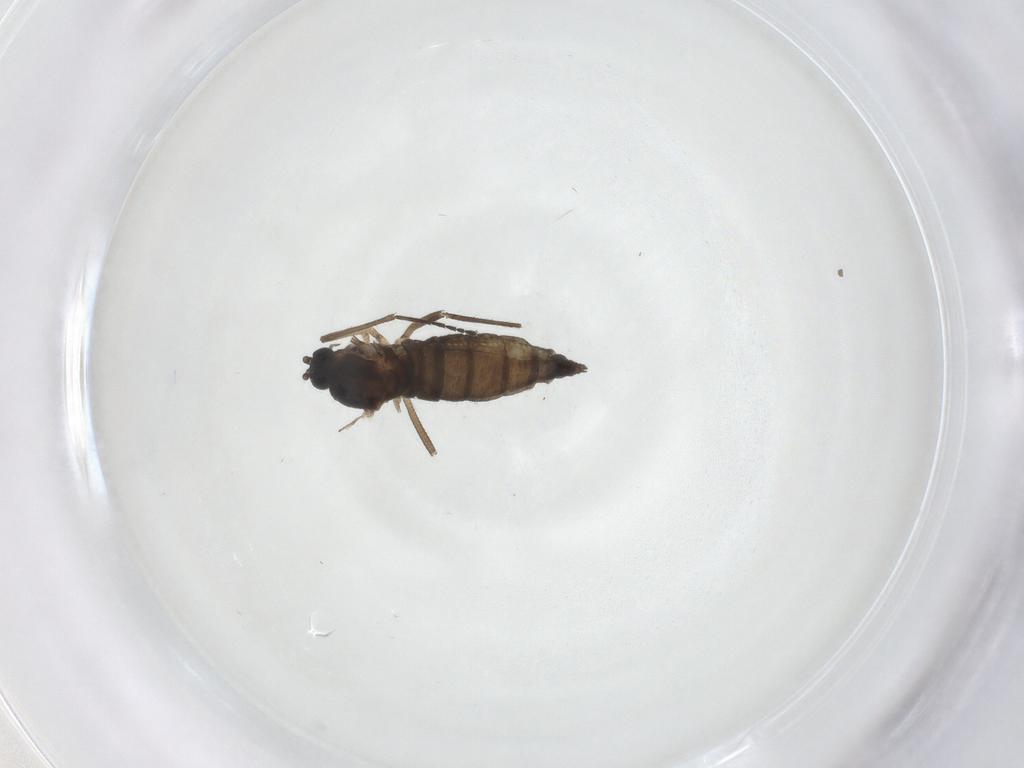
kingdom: Animalia
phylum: Arthropoda
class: Insecta
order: Diptera
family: Sciaridae
